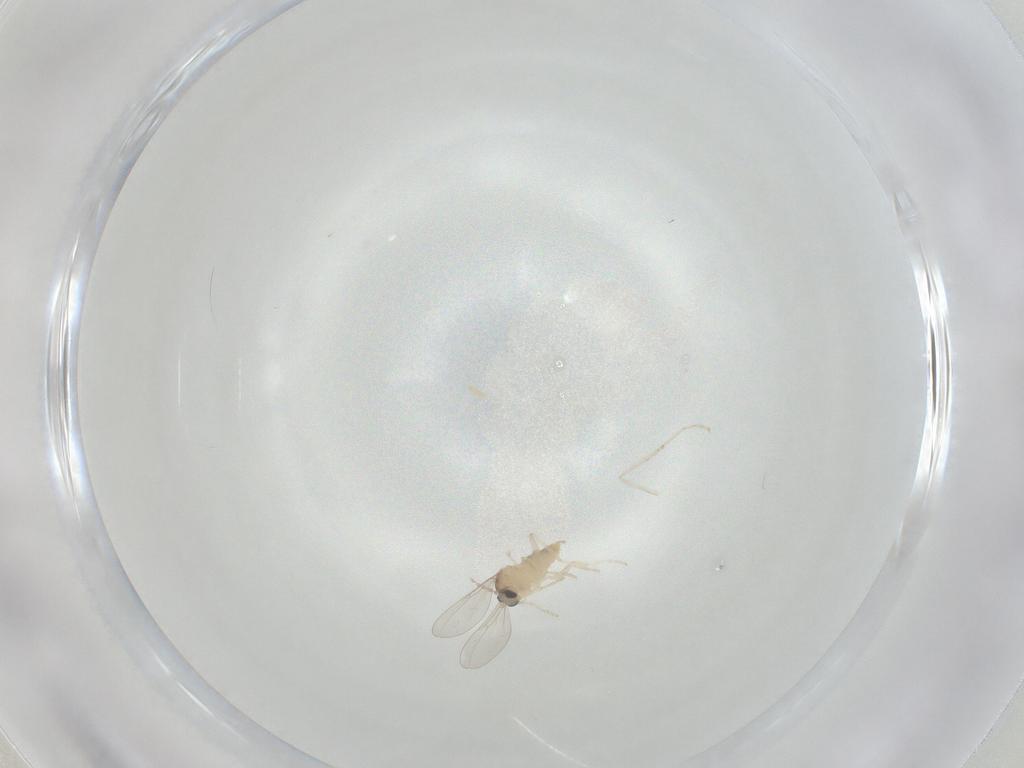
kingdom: Animalia
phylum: Arthropoda
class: Insecta
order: Diptera
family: Cecidomyiidae
